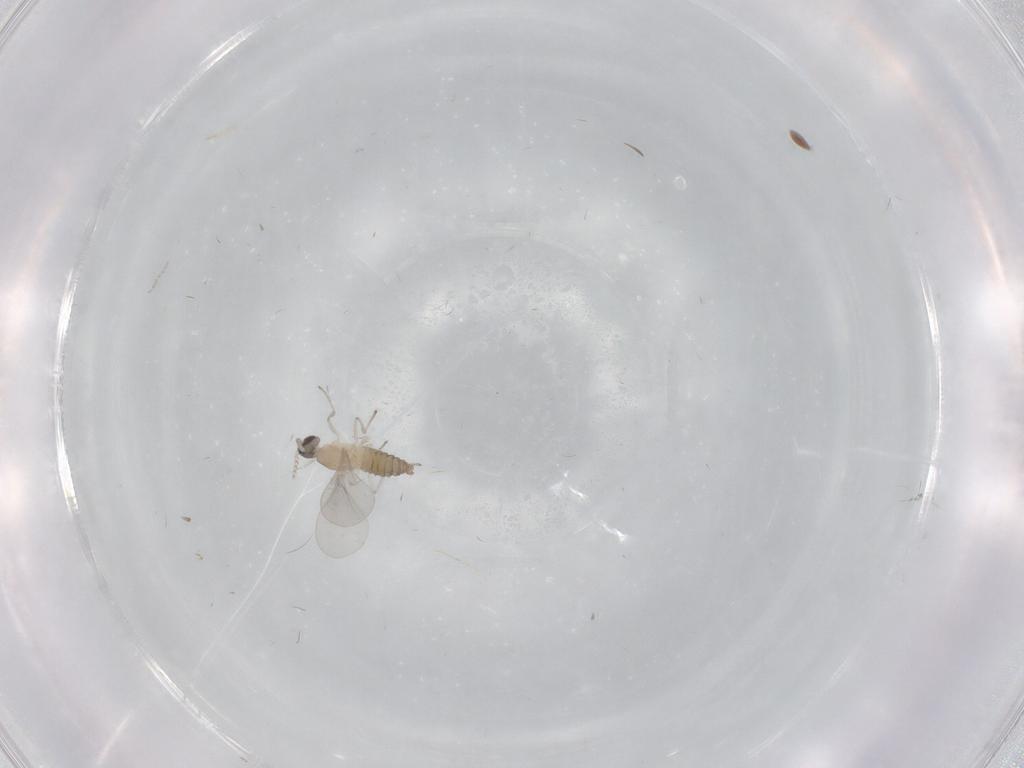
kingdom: Animalia
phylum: Arthropoda
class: Insecta
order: Diptera
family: Cecidomyiidae
